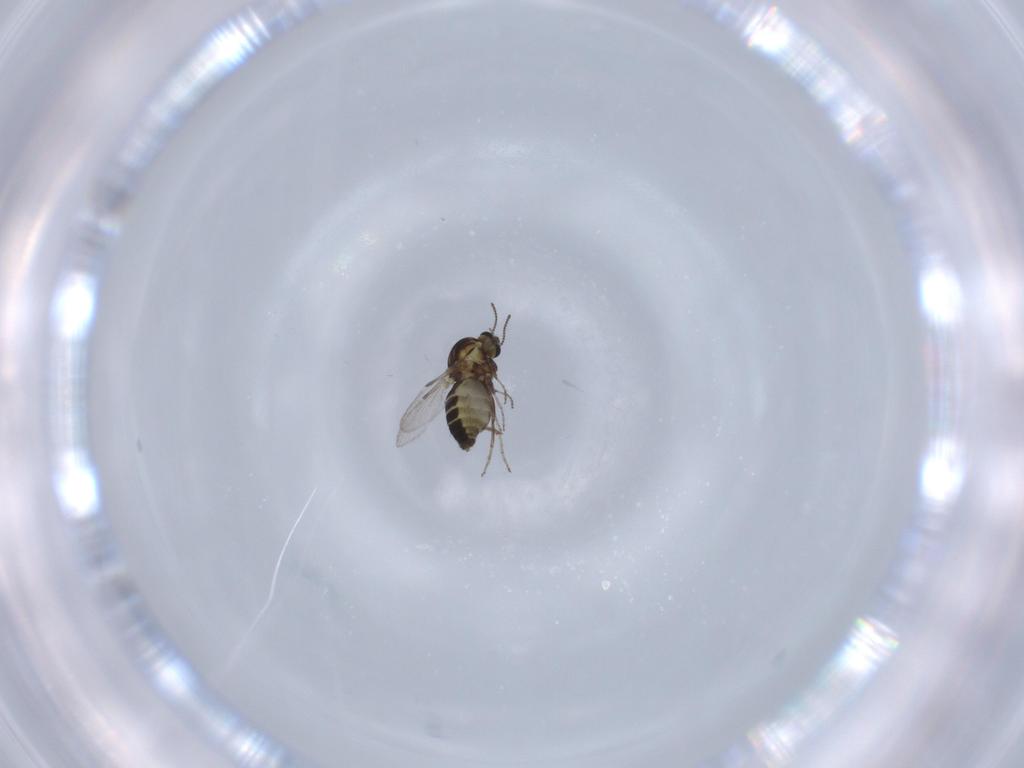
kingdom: Animalia
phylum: Arthropoda
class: Insecta
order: Diptera
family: Ceratopogonidae
